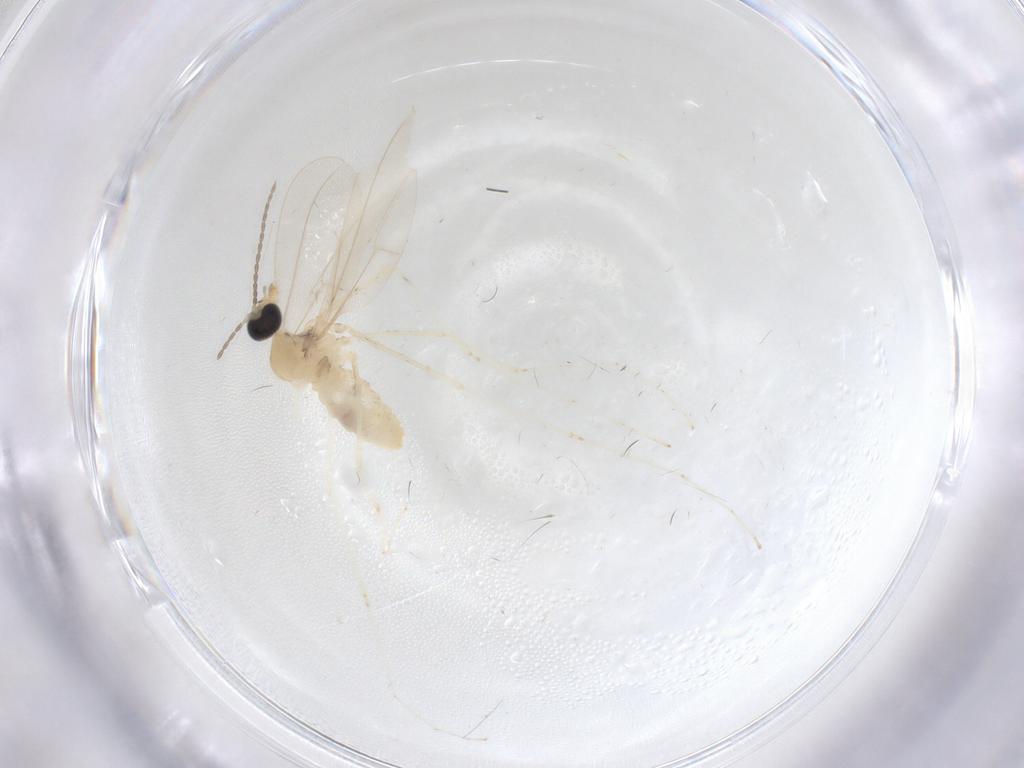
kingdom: Animalia
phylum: Arthropoda
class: Insecta
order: Diptera
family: Cecidomyiidae
